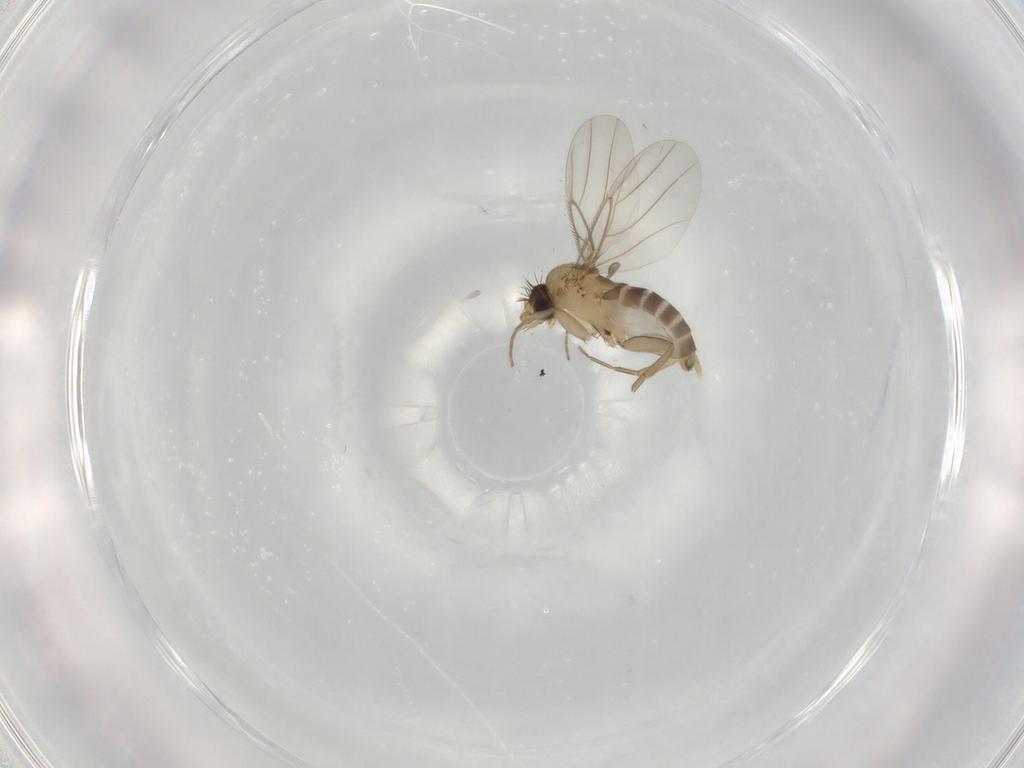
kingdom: Animalia
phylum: Arthropoda
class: Insecta
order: Diptera
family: Phoridae
